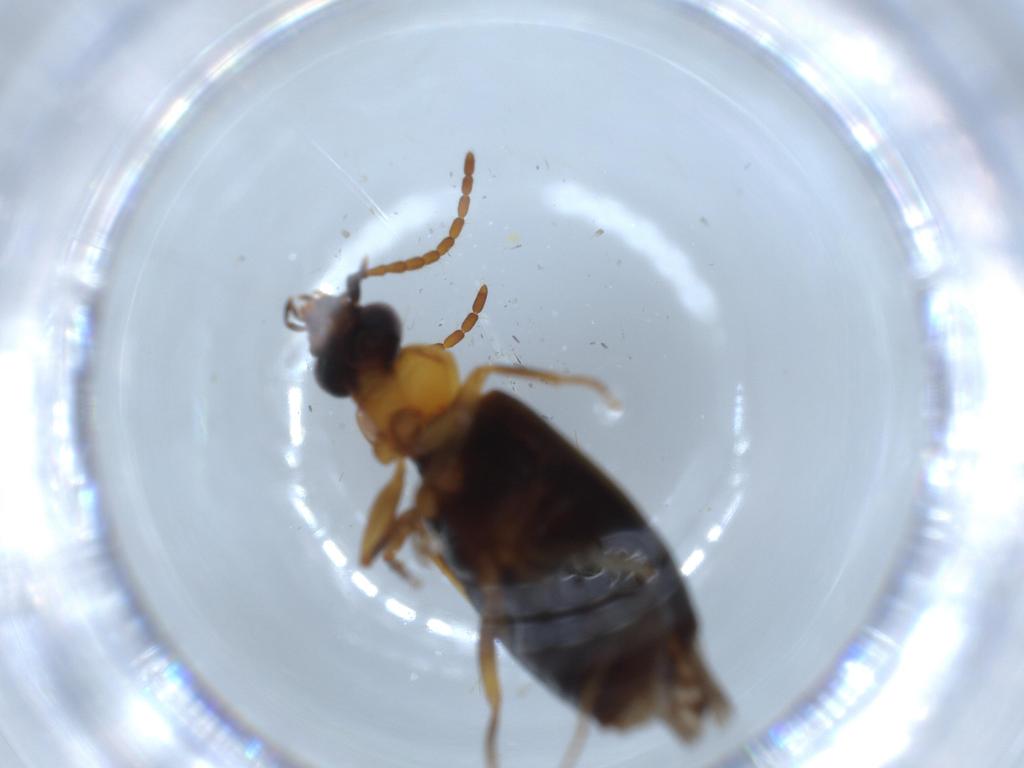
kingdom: Animalia
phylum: Arthropoda
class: Insecta
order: Coleoptera
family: Carabidae
